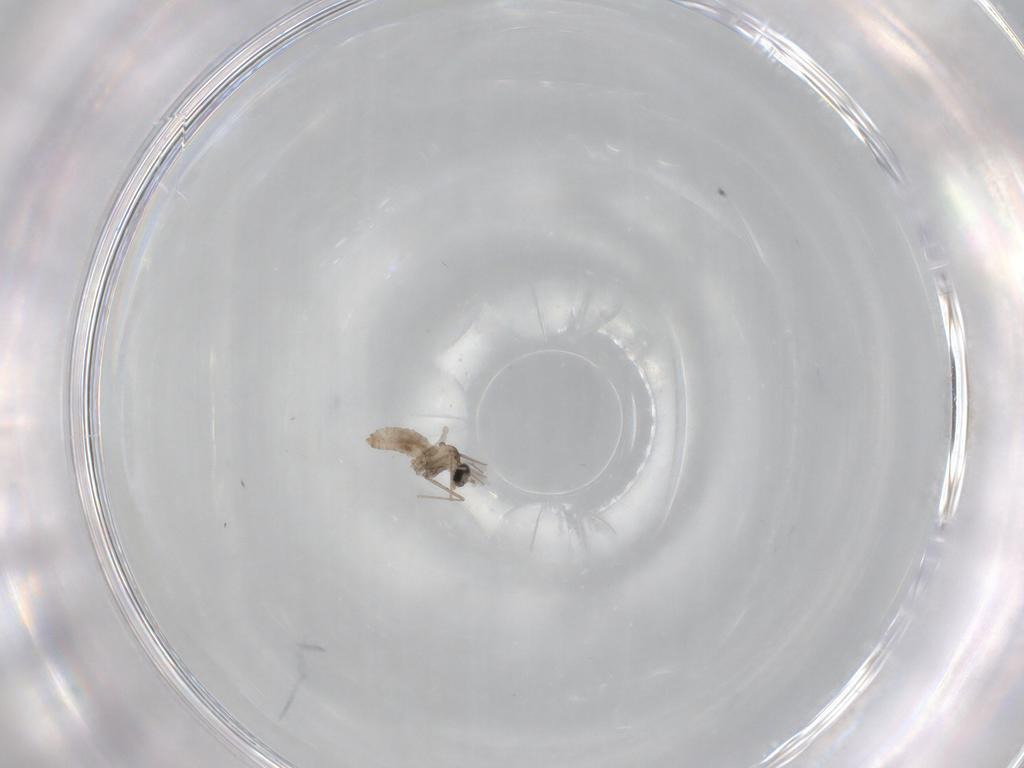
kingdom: Animalia
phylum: Arthropoda
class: Insecta
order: Diptera
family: Cecidomyiidae
